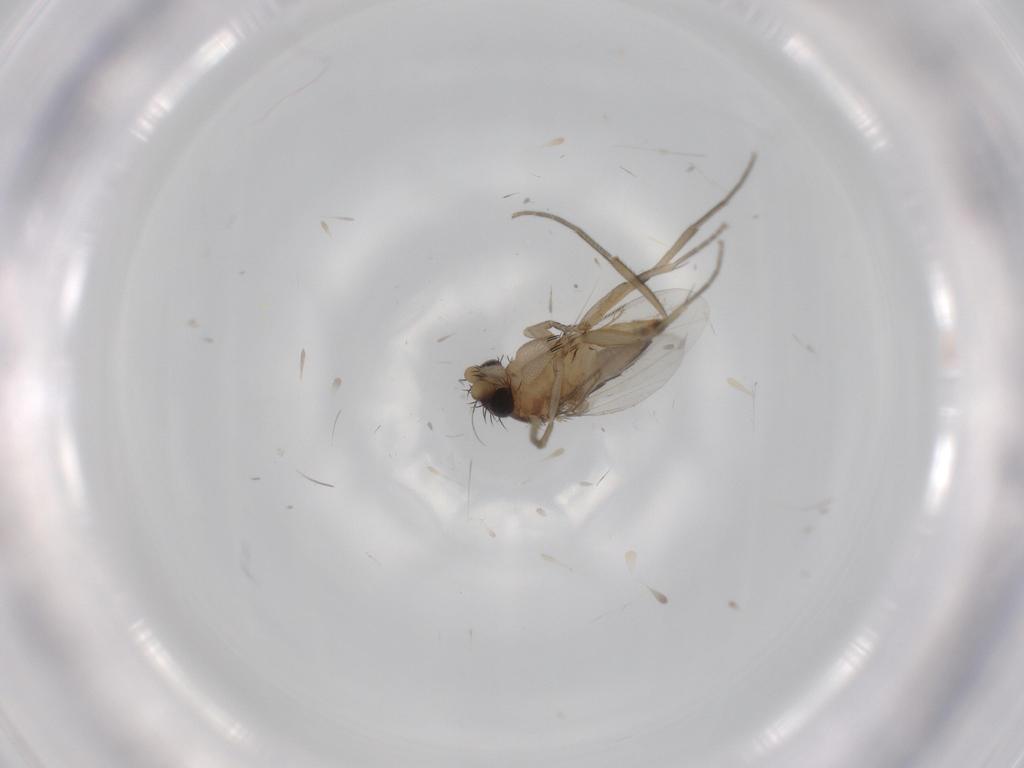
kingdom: Animalia
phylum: Arthropoda
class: Insecta
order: Diptera
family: Phoridae
